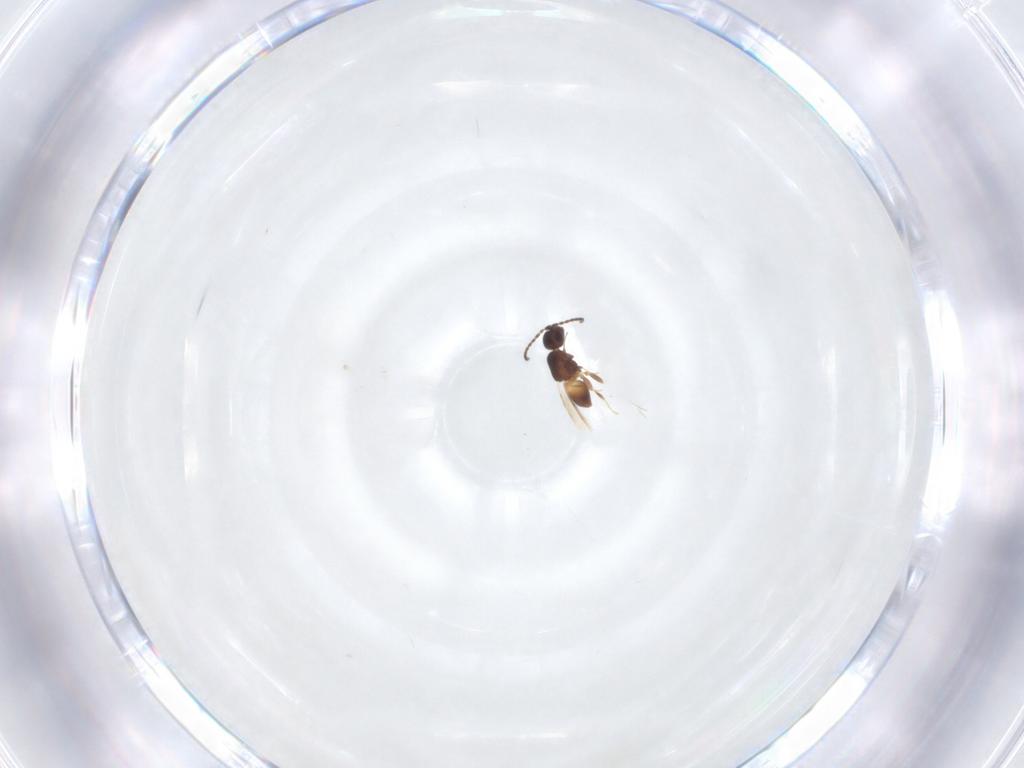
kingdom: Animalia
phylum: Arthropoda
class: Insecta
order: Hymenoptera
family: Ceraphronidae
